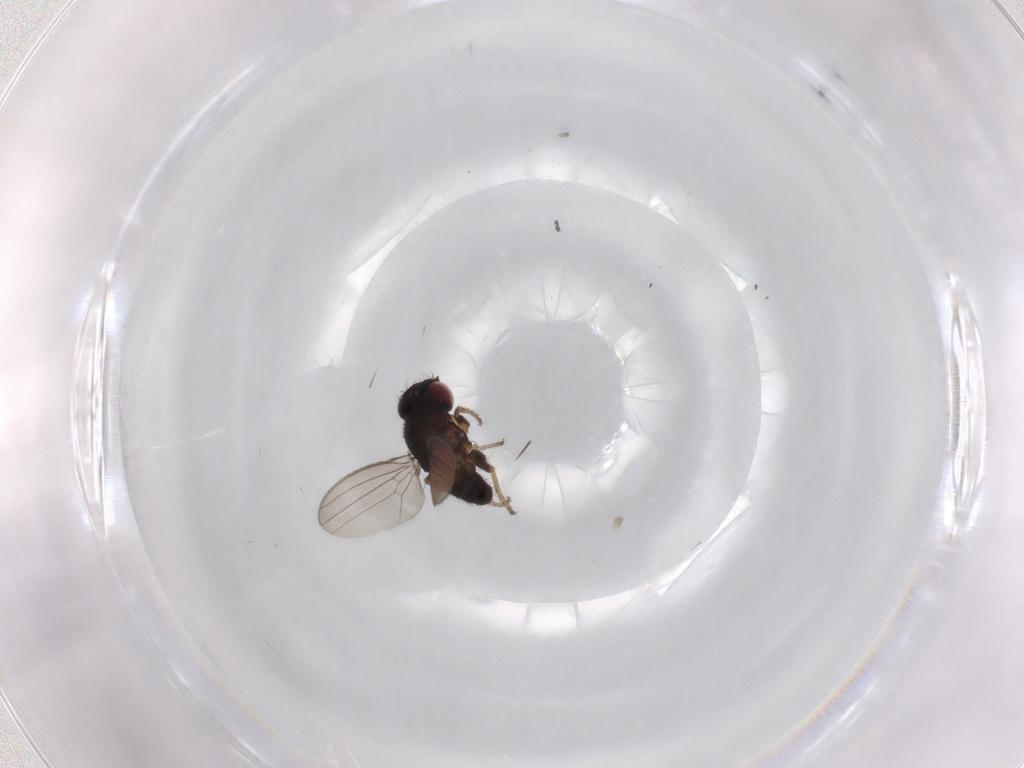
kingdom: Animalia
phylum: Arthropoda
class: Insecta
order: Diptera
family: Milichiidae
